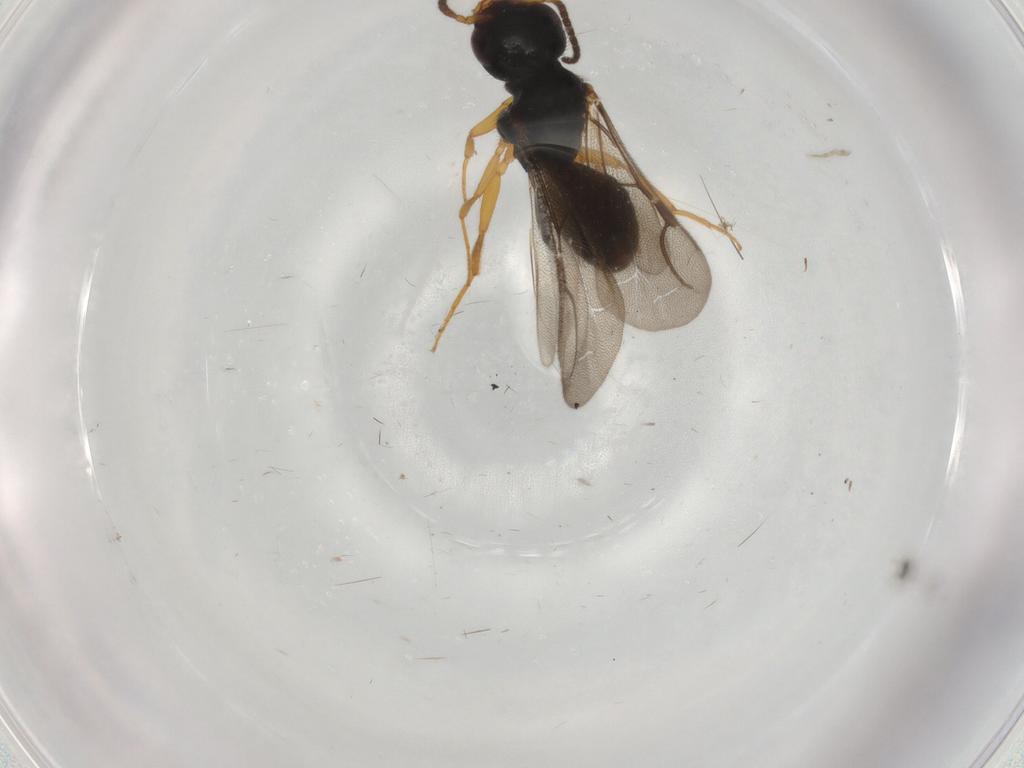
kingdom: Animalia
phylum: Arthropoda
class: Insecta
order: Hymenoptera
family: Bethylidae
